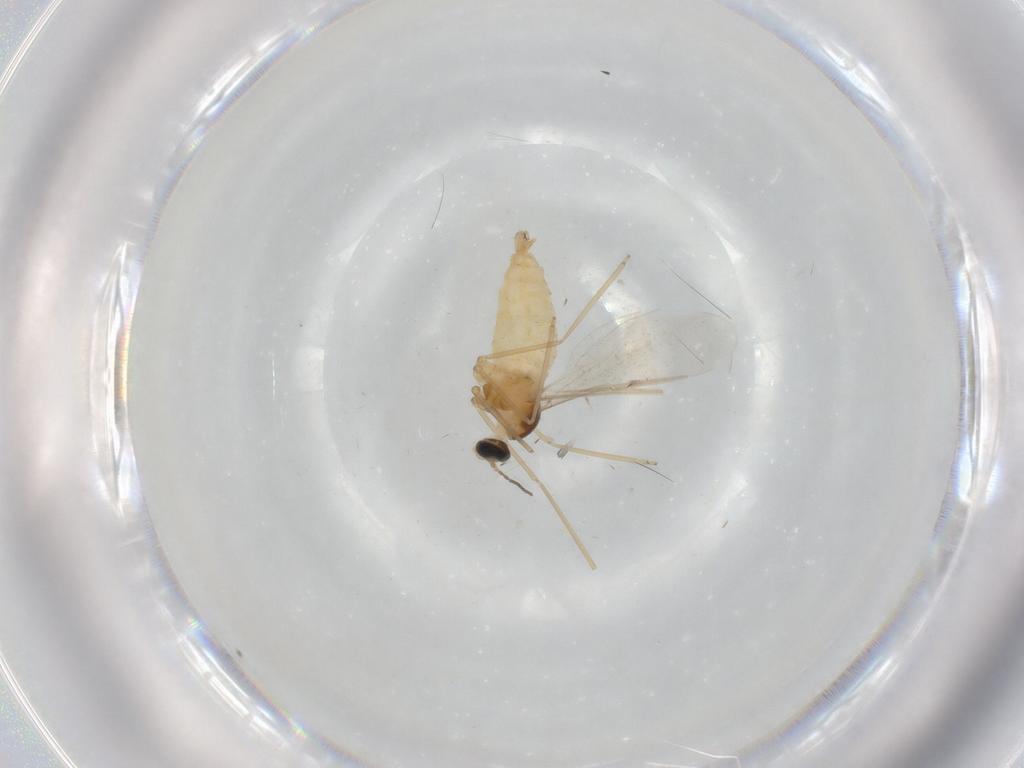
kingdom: Animalia
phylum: Arthropoda
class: Insecta
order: Diptera
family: Cecidomyiidae
